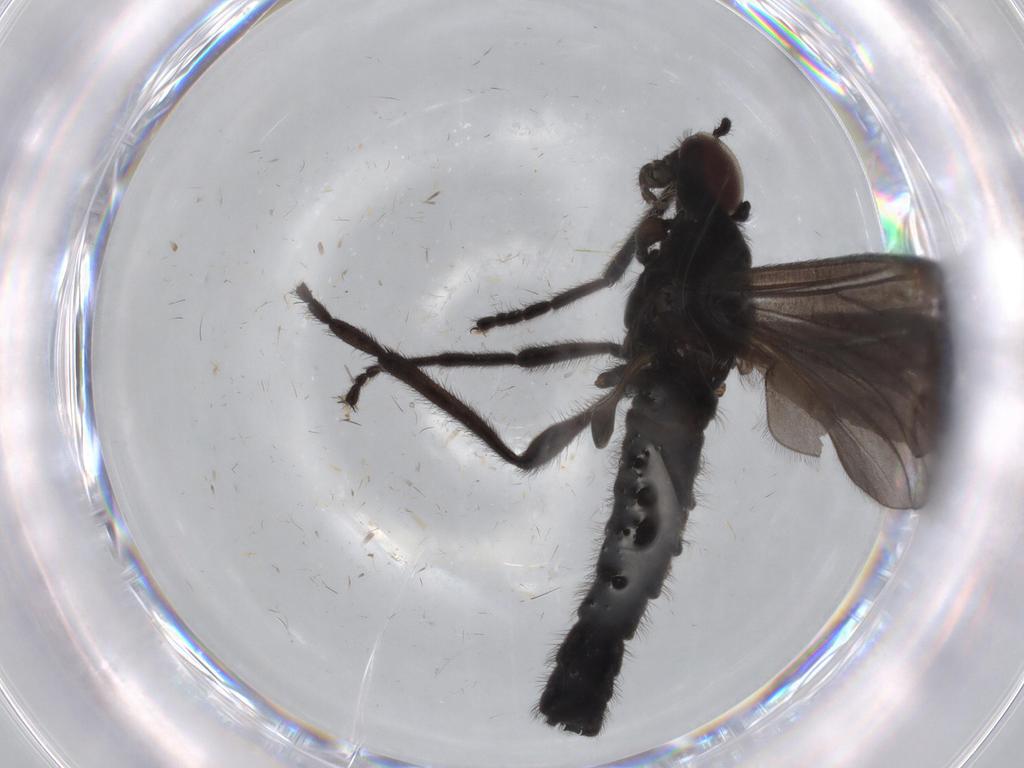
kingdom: Animalia
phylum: Arthropoda
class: Insecta
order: Diptera
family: Bibionidae
